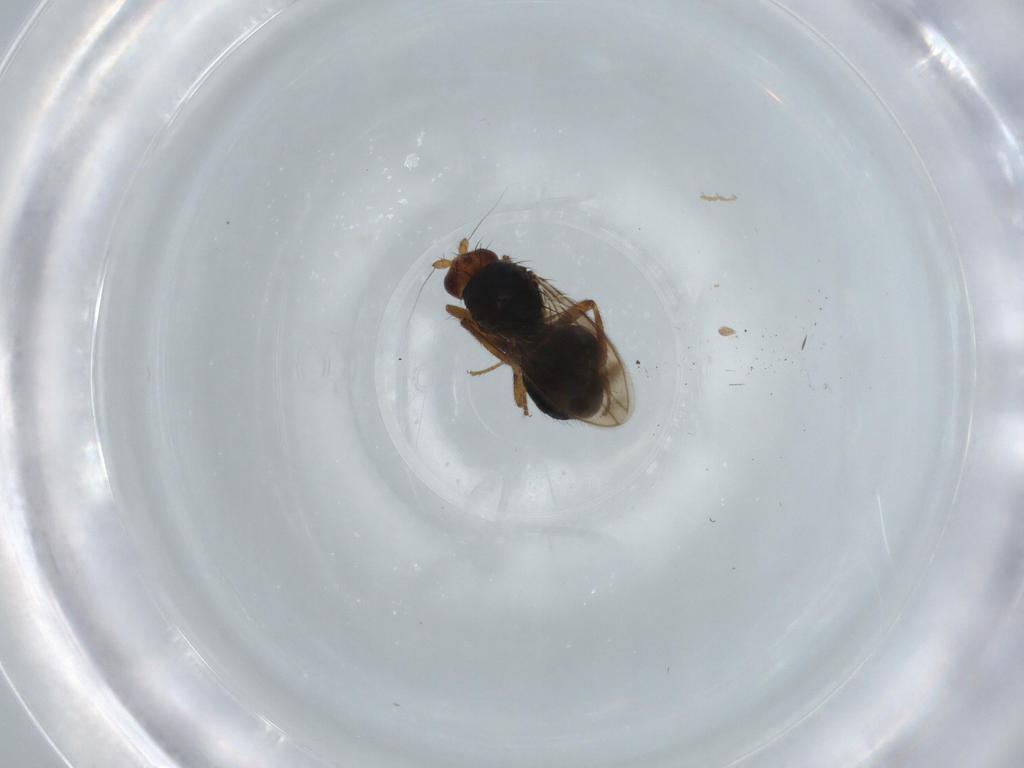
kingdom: Animalia
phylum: Arthropoda
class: Insecta
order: Diptera
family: Sphaeroceridae
